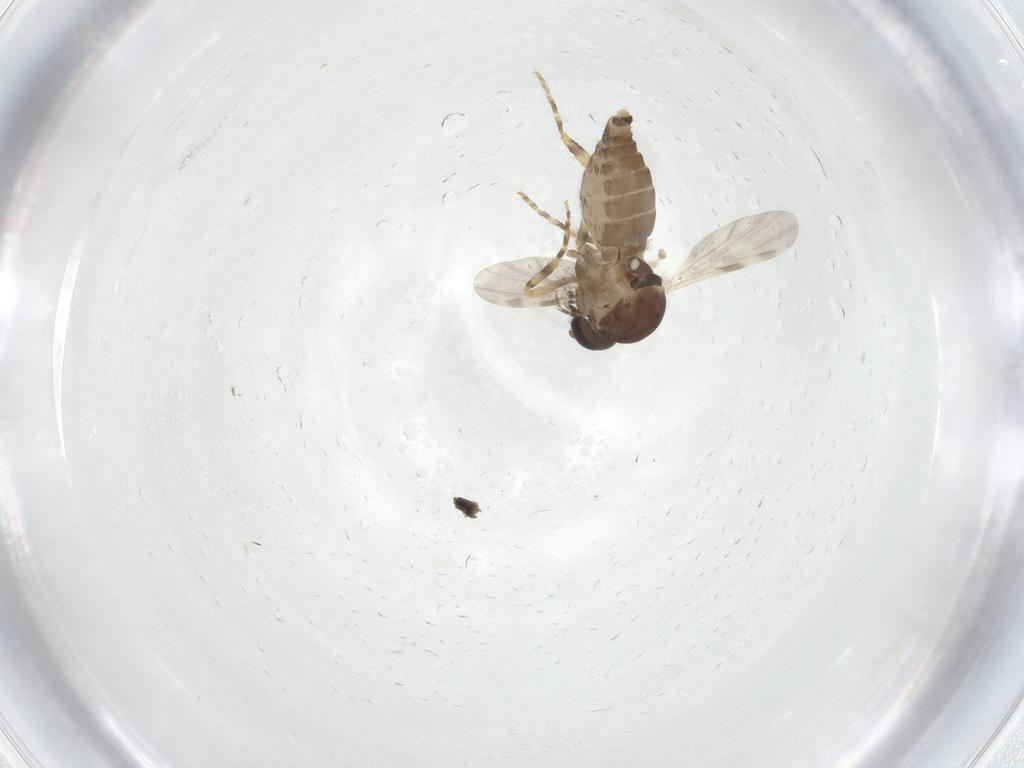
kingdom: Animalia
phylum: Arthropoda
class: Insecta
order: Diptera
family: Ceratopogonidae
